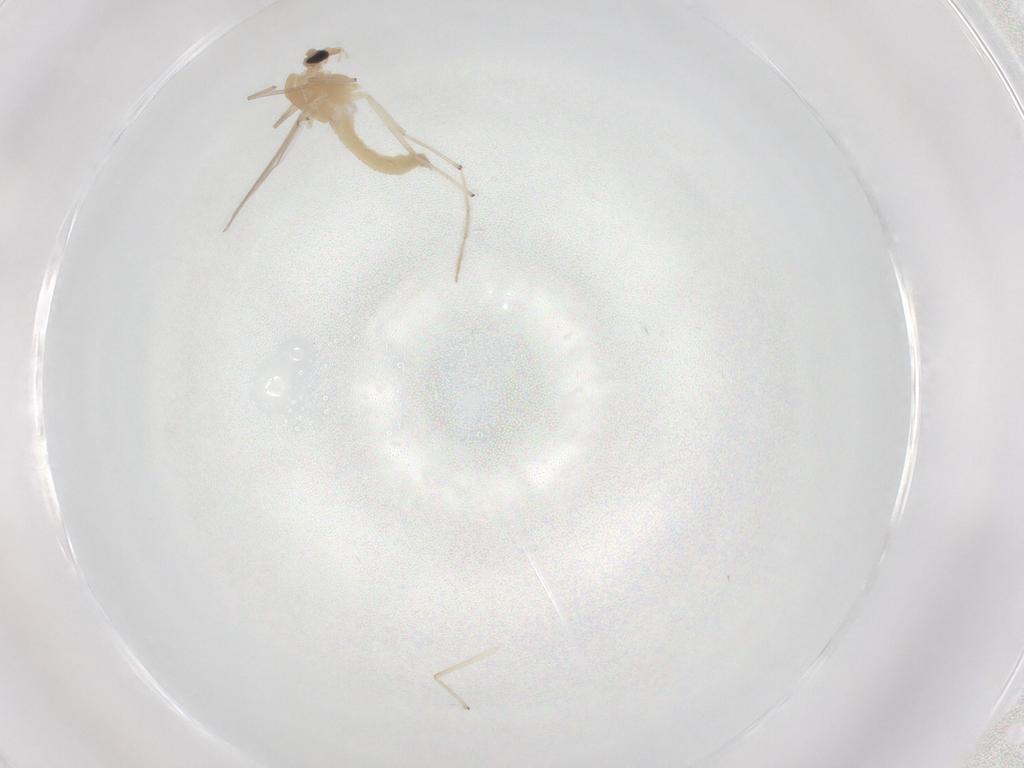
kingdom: Animalia
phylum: Arthropoda
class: Insecta
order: Diptera
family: Chironomidae
